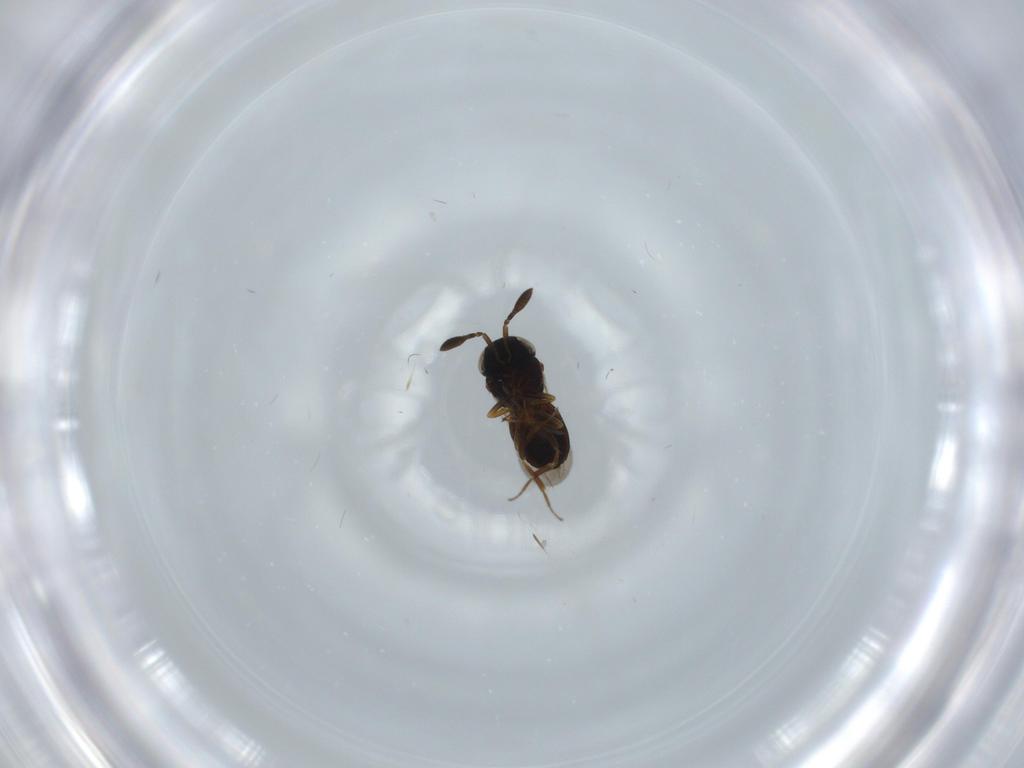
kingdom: Animalia
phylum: Arthropoda
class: Insecta
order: Hymenoptera
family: Scelionidae
